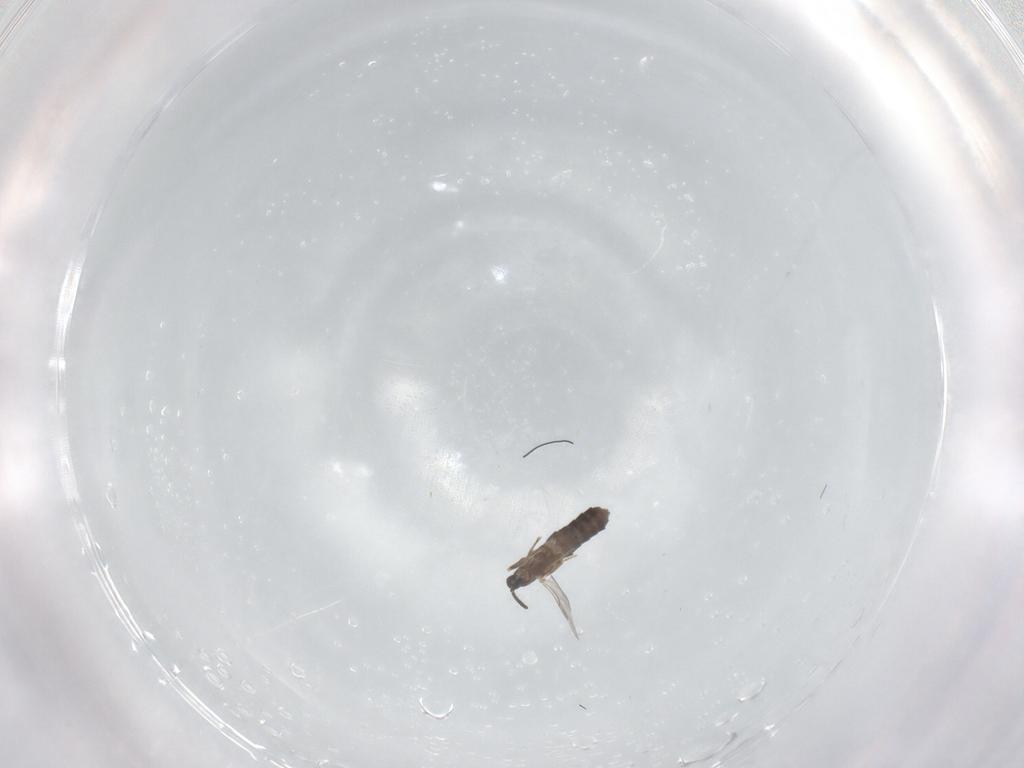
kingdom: Animalia
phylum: Arthropoda
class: Insecta
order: Diptera
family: Scatopsidae
